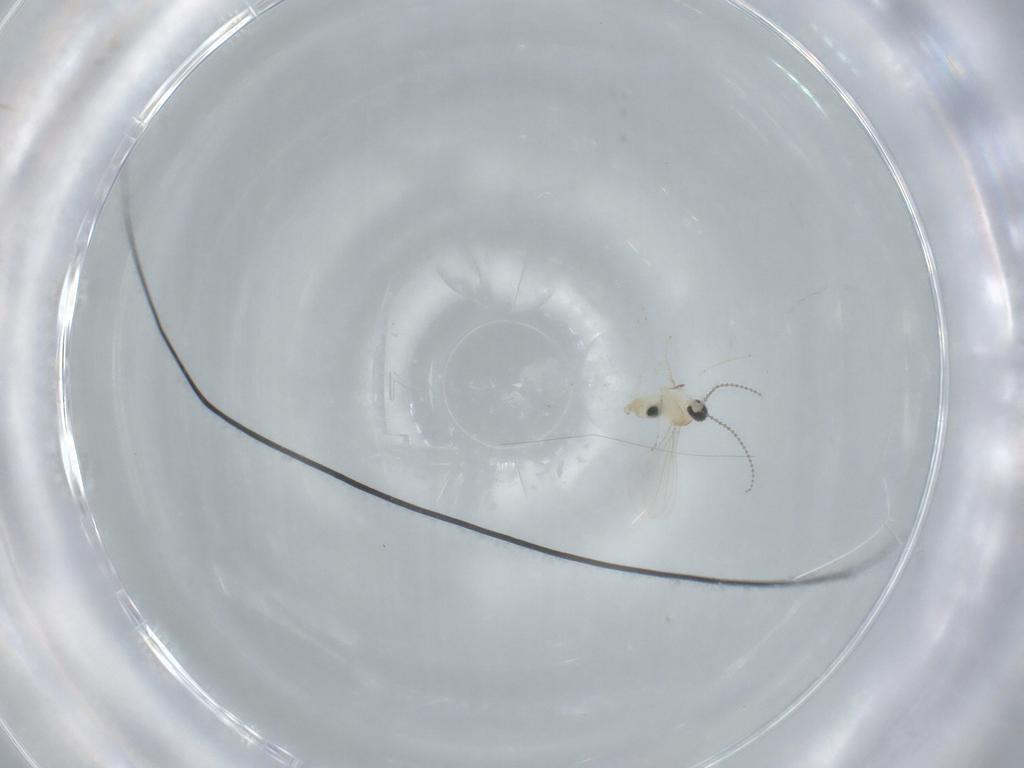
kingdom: Animalia
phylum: Arthropoda
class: Insecta
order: Diptera
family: Cecidomyiidae
